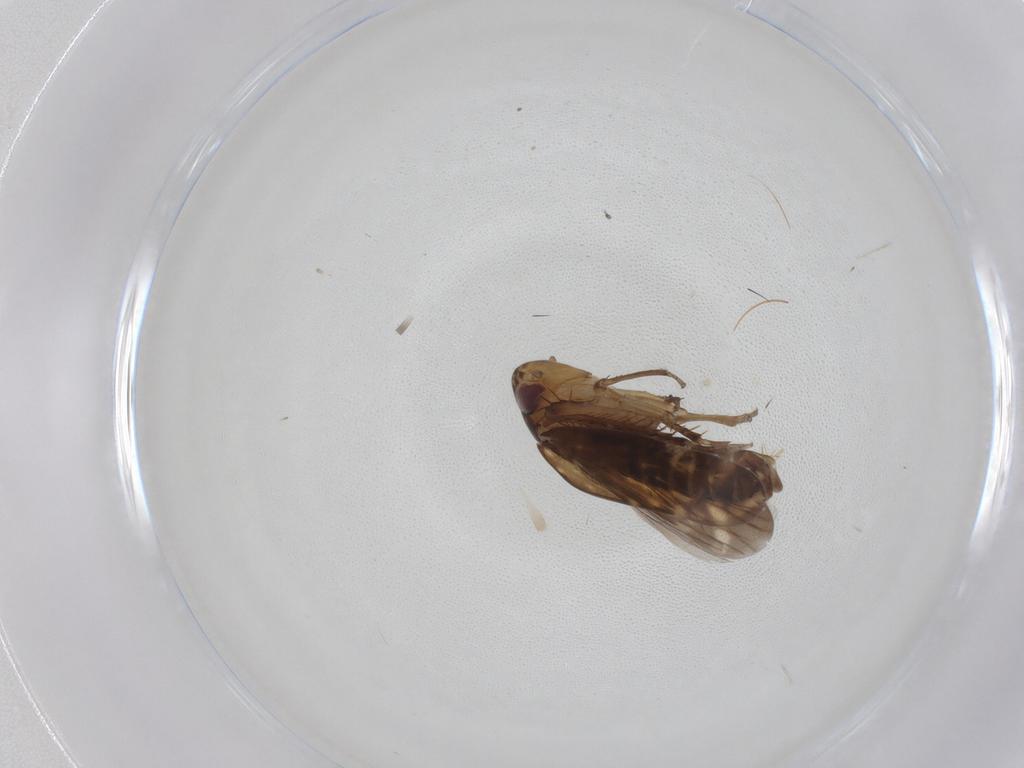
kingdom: Animalia
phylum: Arthropoda
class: Insecta
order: Hemiptera
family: Cicadellidae
